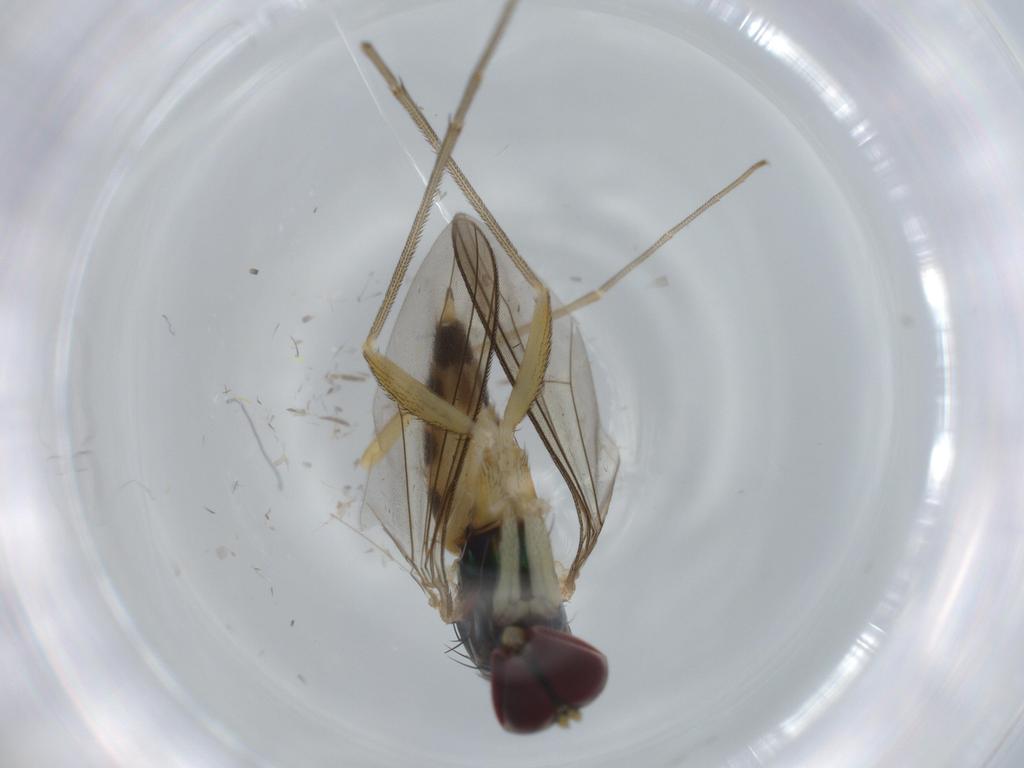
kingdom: Animalia
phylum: Arthropoda
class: Insecta
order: Diptera
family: Dolichopodidae
